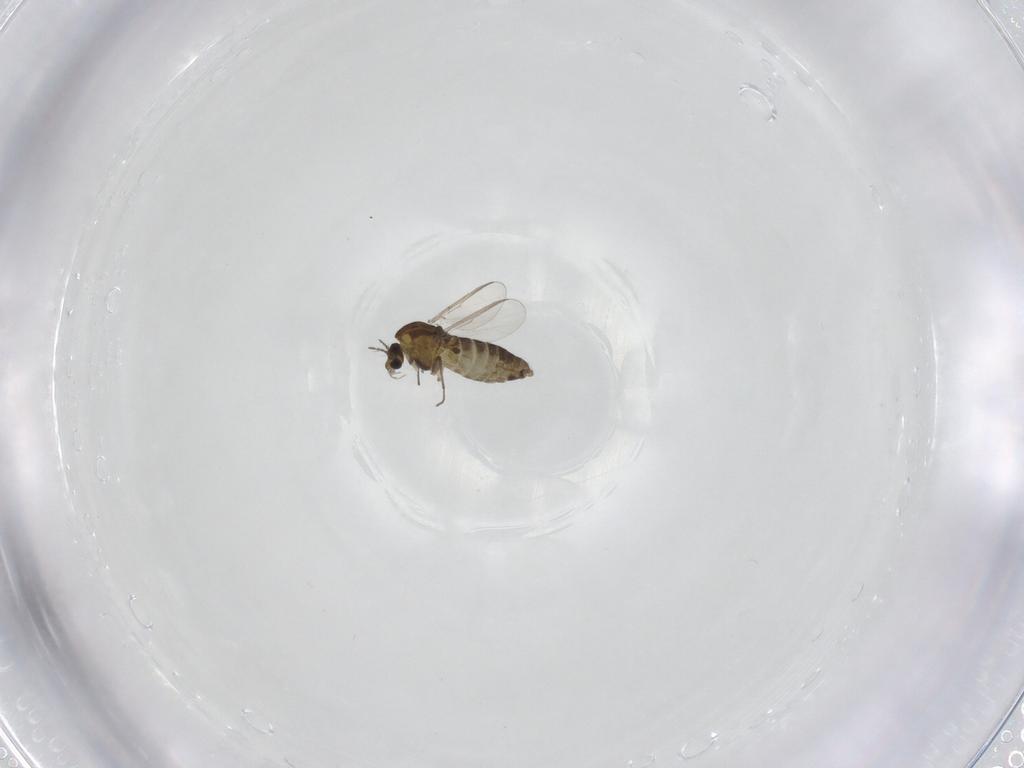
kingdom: Animalia
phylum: Arthropoda
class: Insecta
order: Diptera
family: Chironomidae
